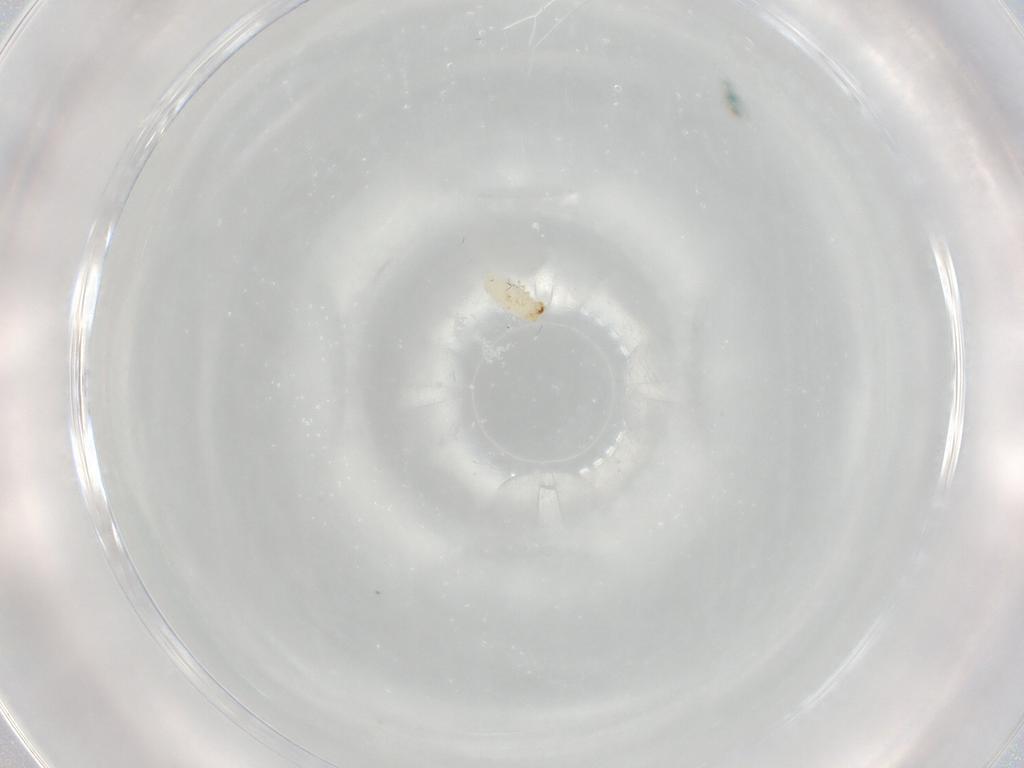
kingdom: Animalia
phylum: Arthropoda
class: Insecta
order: Coleoptera
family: Chrysomelidae
